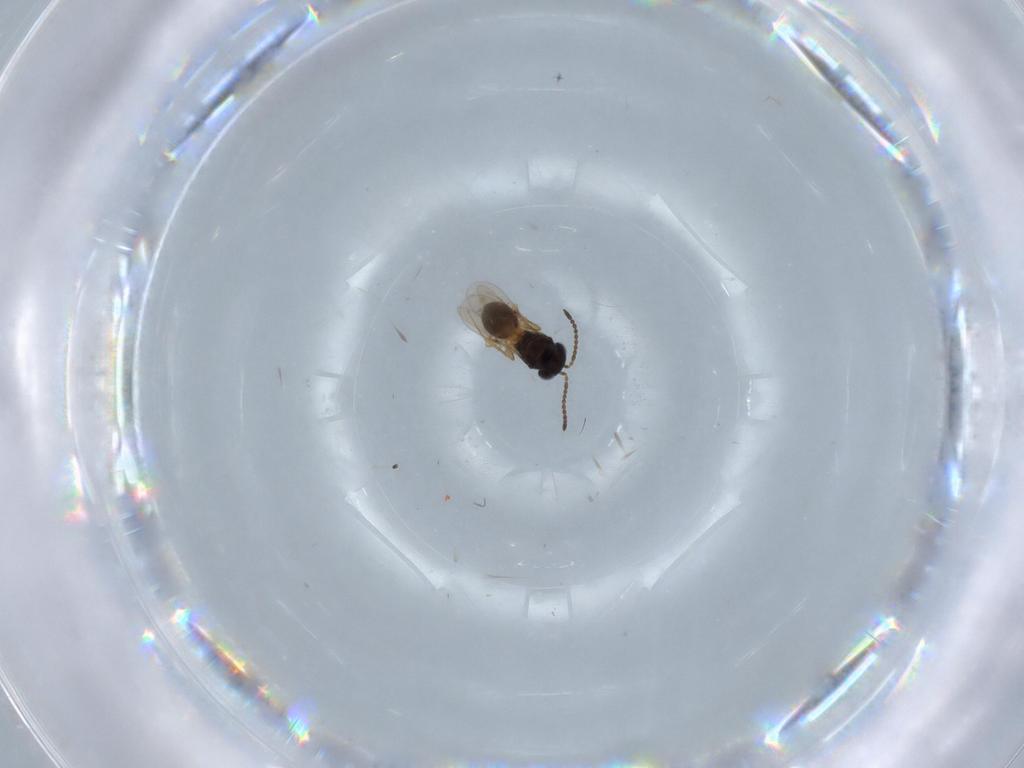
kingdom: Animalia
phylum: Arthropoda
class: Insecta
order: Hymenoptera
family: Scelionidae
